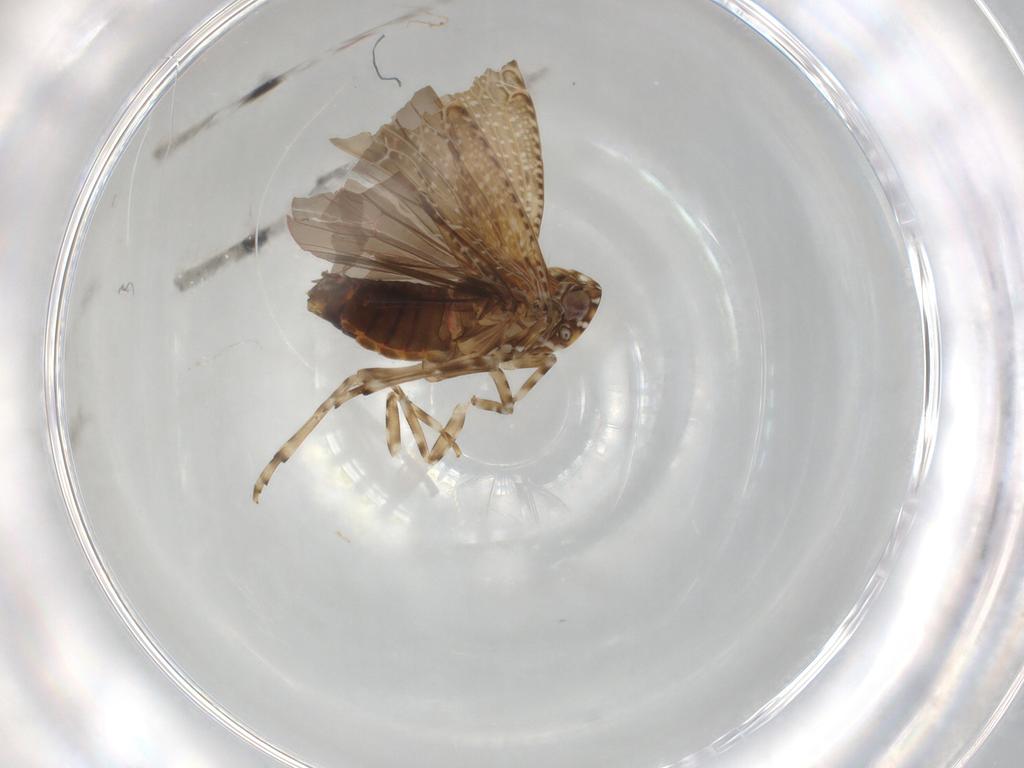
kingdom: Animalia
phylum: Arthropoda
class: Insecta
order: Hemiptera
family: Achilidae
